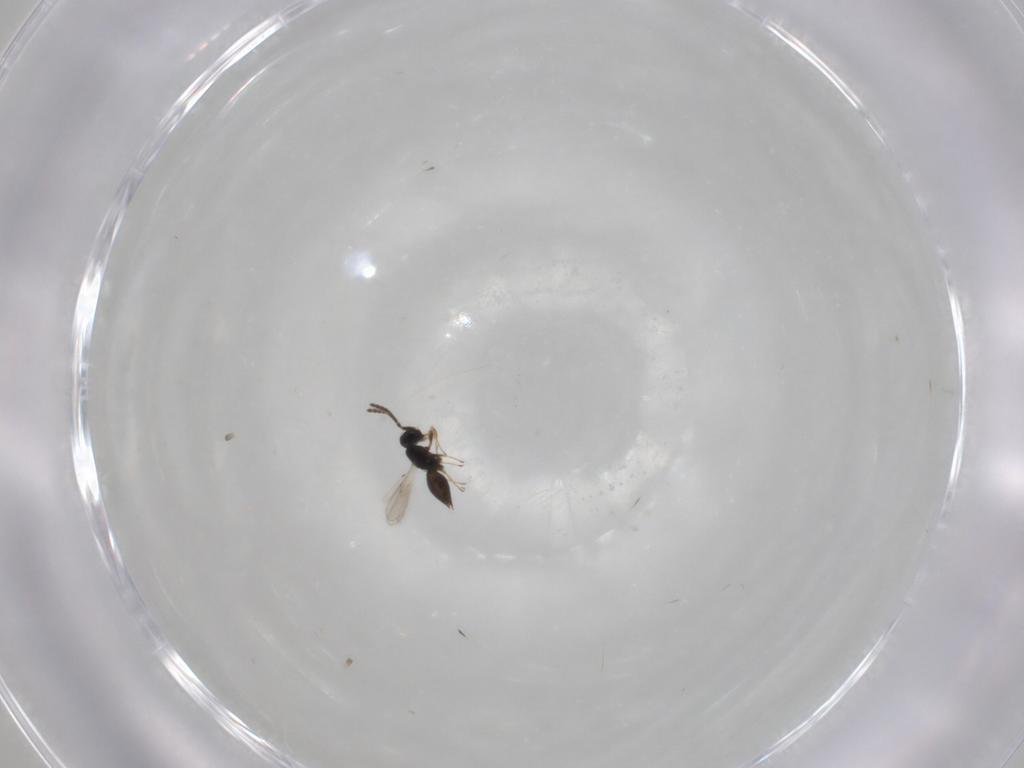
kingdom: Animalia
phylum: Arthropoda
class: Insecta
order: Hymenoptera
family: Scelionidae
